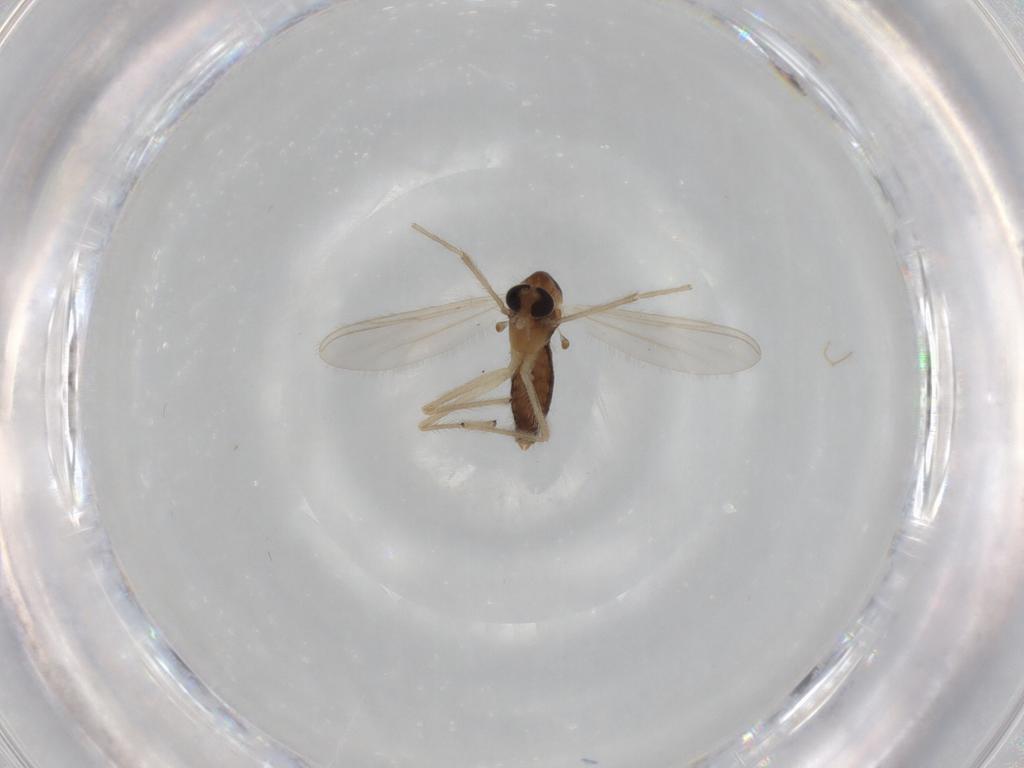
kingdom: Animalia
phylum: Arthropoda
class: Insecta
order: Diptera
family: Chironomidae
